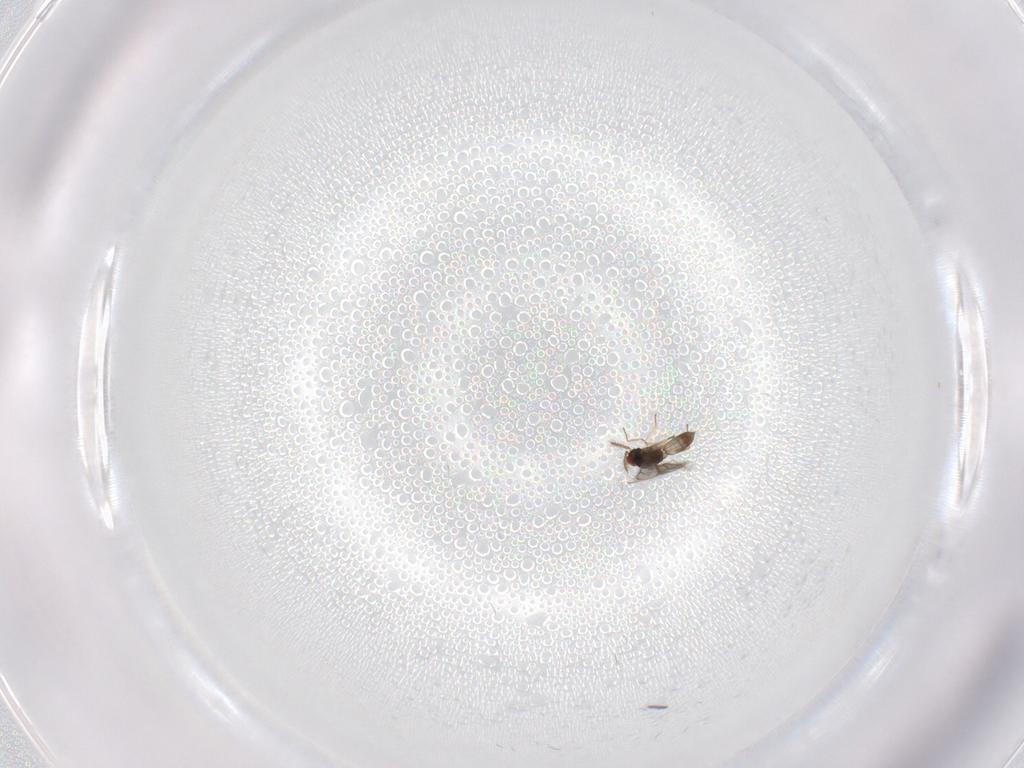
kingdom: Animalia
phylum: Arthropoda
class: Insecta
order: Hymenoptera
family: Eulophidae
